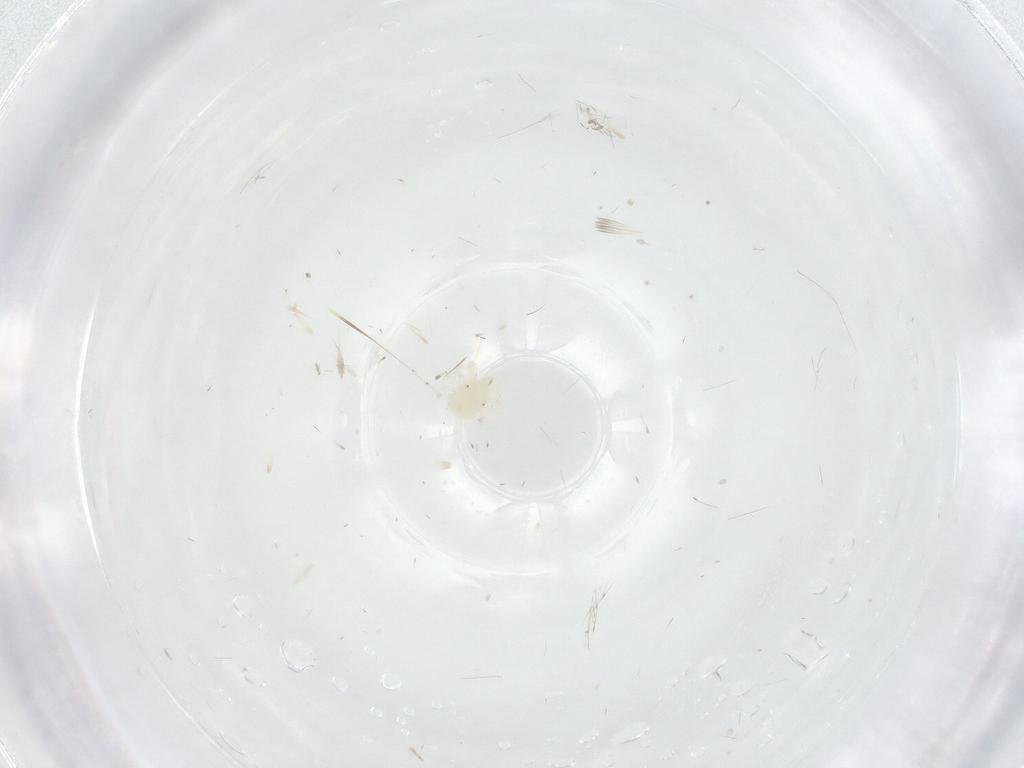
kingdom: Animalia
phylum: Arthropoda
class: Arachnida
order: Trombidiformes
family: Anystidae
